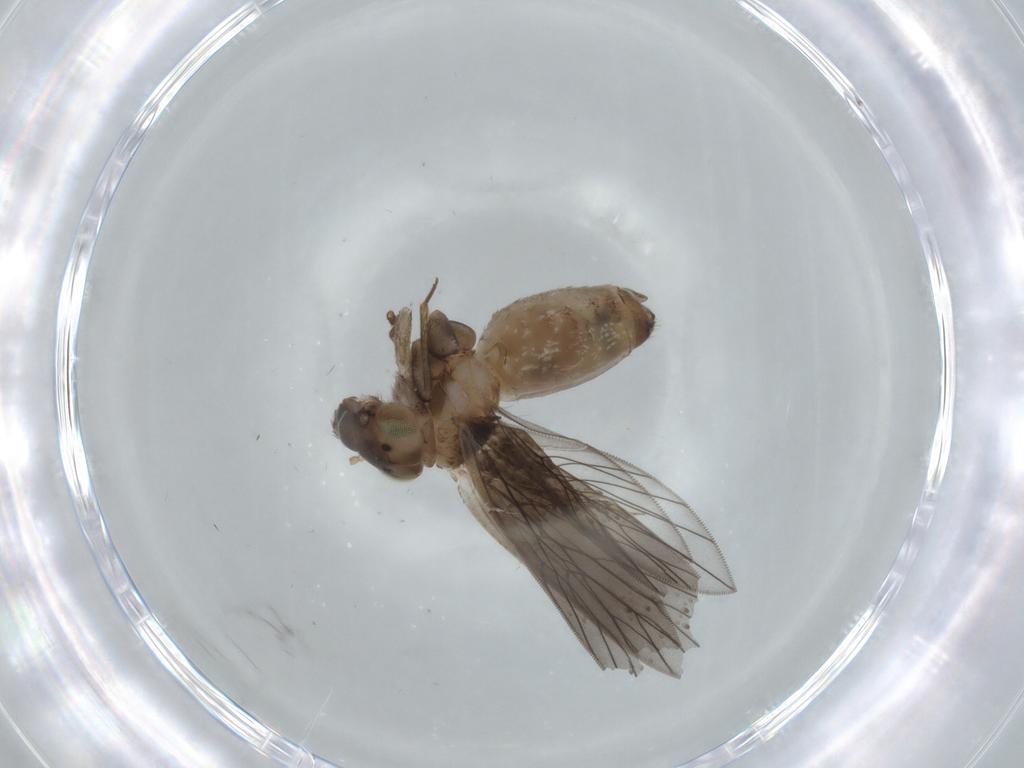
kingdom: Animalia
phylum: Arthropoda
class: Insecta
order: Psocodea
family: Lepidopsocidae
